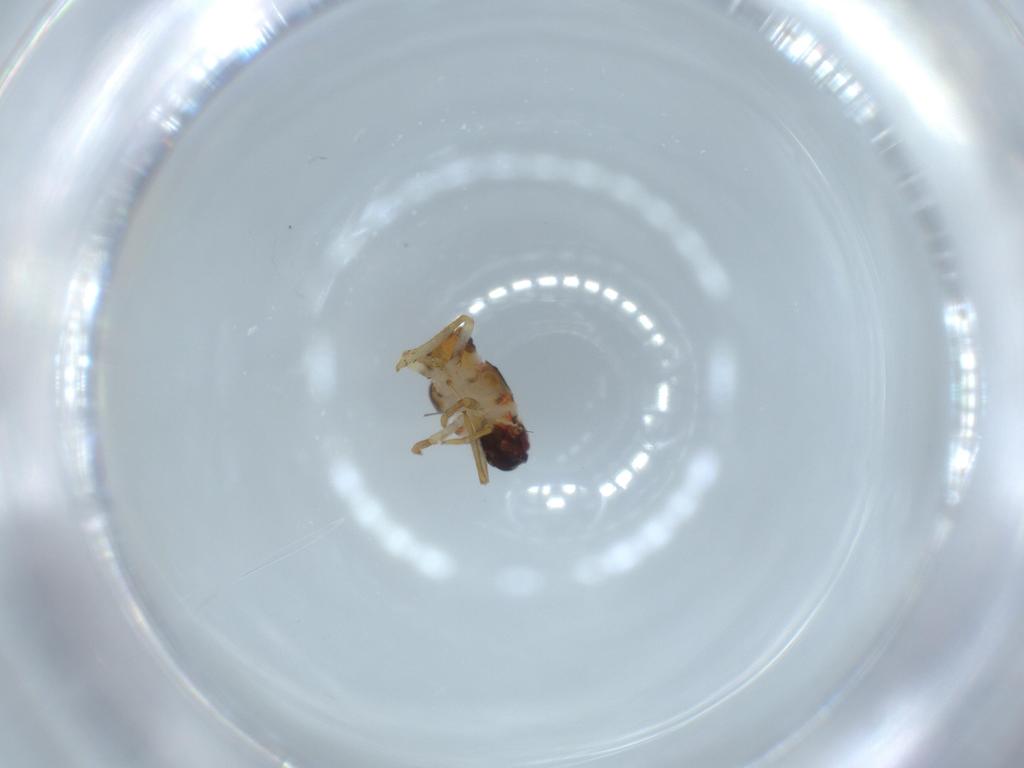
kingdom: Animalia
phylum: Arthropoda
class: Insecta
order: Hemiptera
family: Issidae
